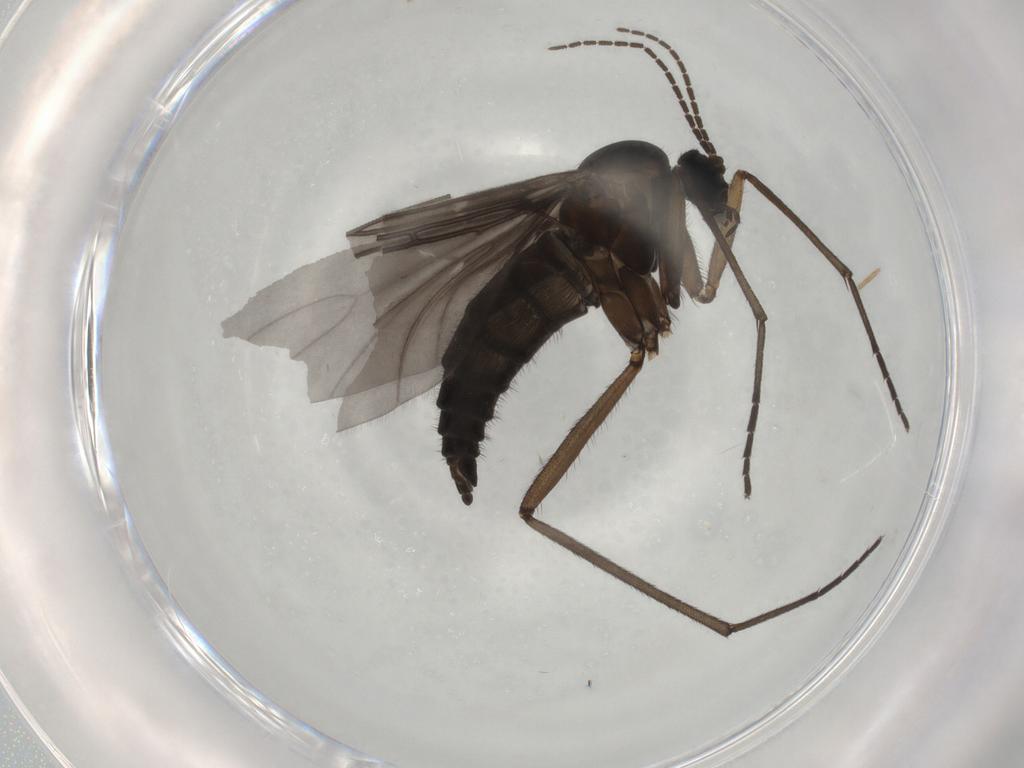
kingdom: Animalia
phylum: Arthropoda
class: Insecta
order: Diptera
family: Sciaridae
